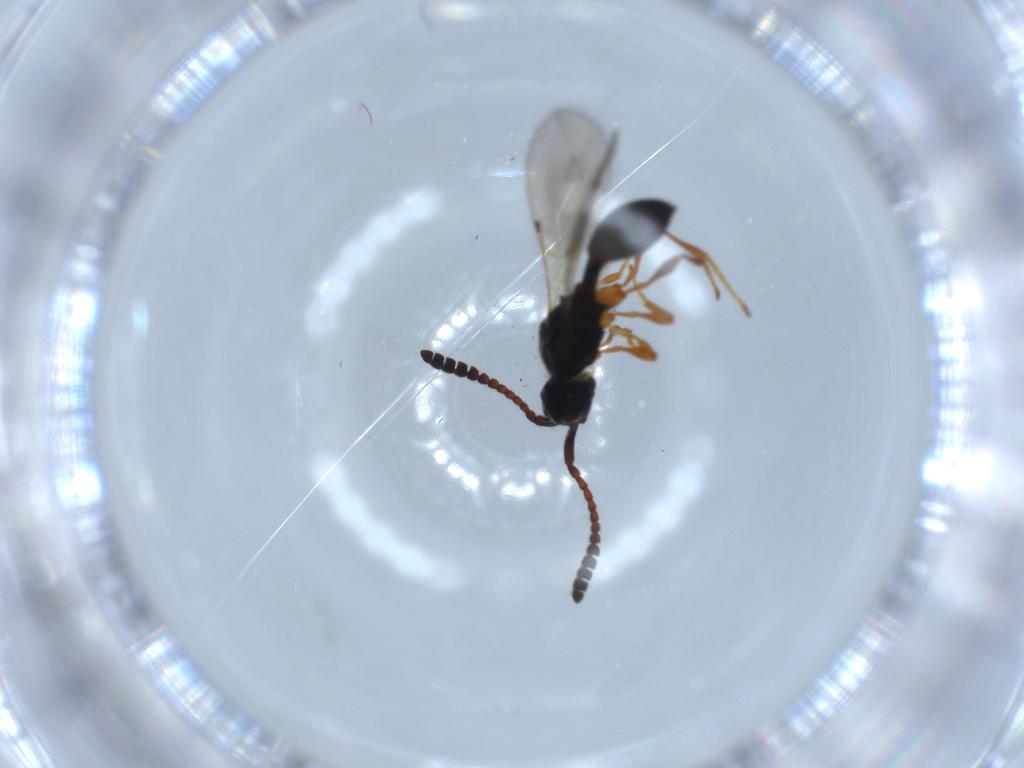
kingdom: Animalia
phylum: Arthropoda
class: Insecta
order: Hymenoptera
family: Diapriidae
